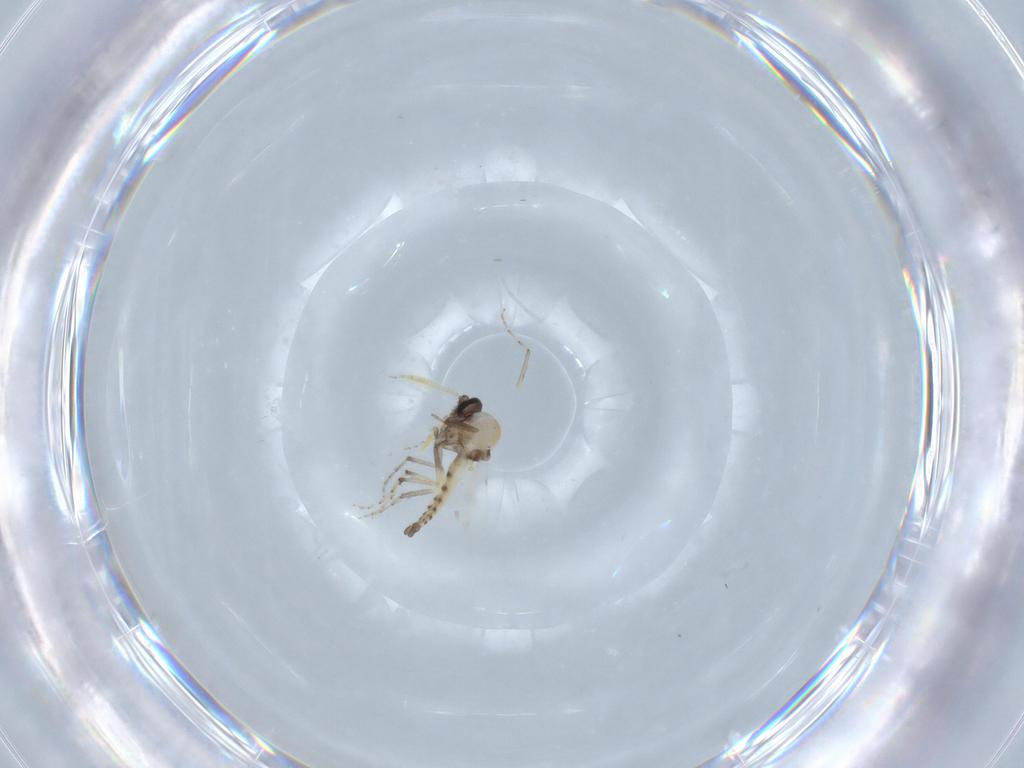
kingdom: Animalia
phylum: Arthropoda
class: Insecta
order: Diptera
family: Ceratopogonidae
